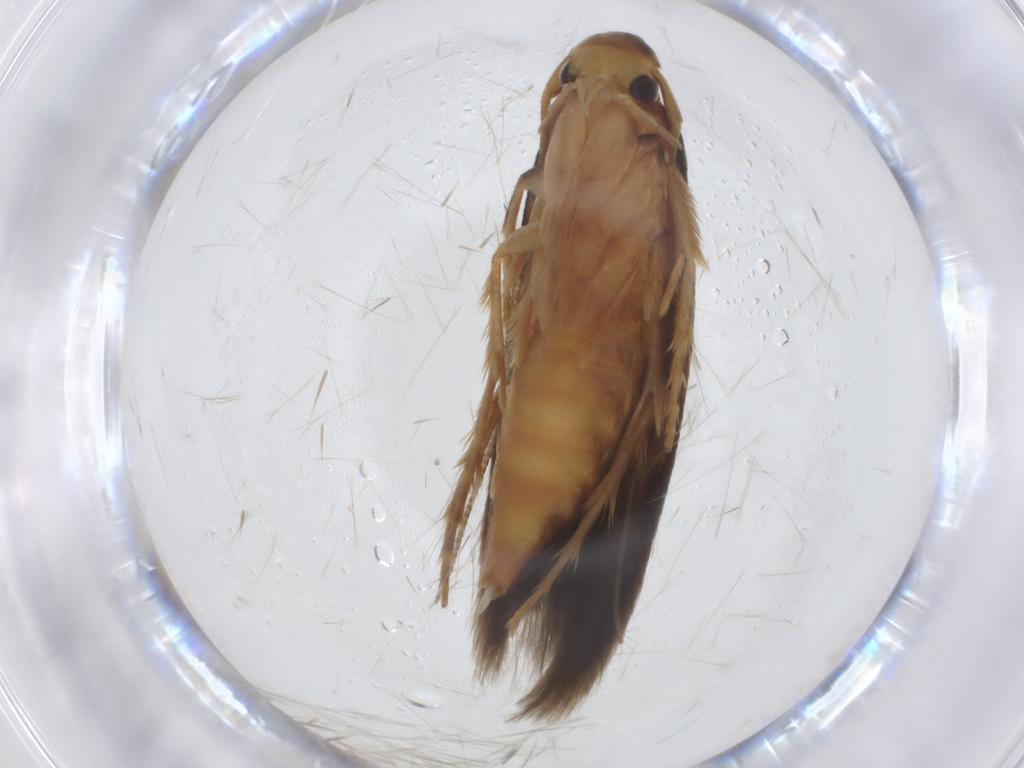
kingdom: Animalia
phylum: Arthropoda
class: Insecta
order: Lepidoptera
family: Tineidae
